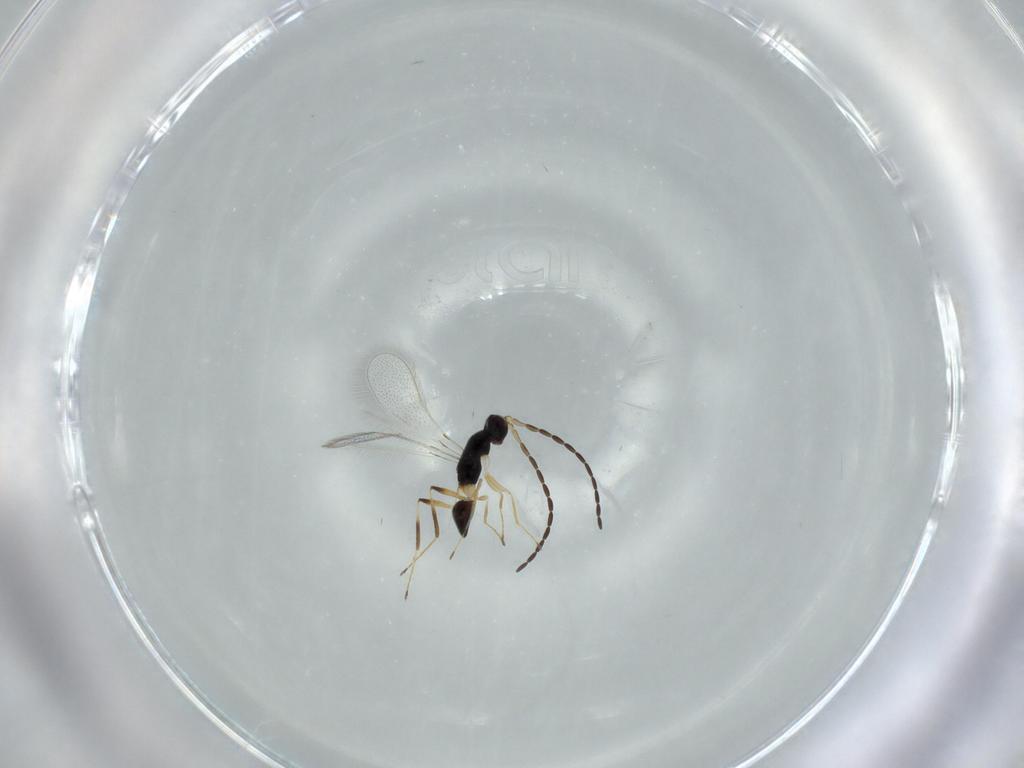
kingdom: Animalia
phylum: Arthropoda
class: Insecta
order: Hymenoptera
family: Mymaridae
